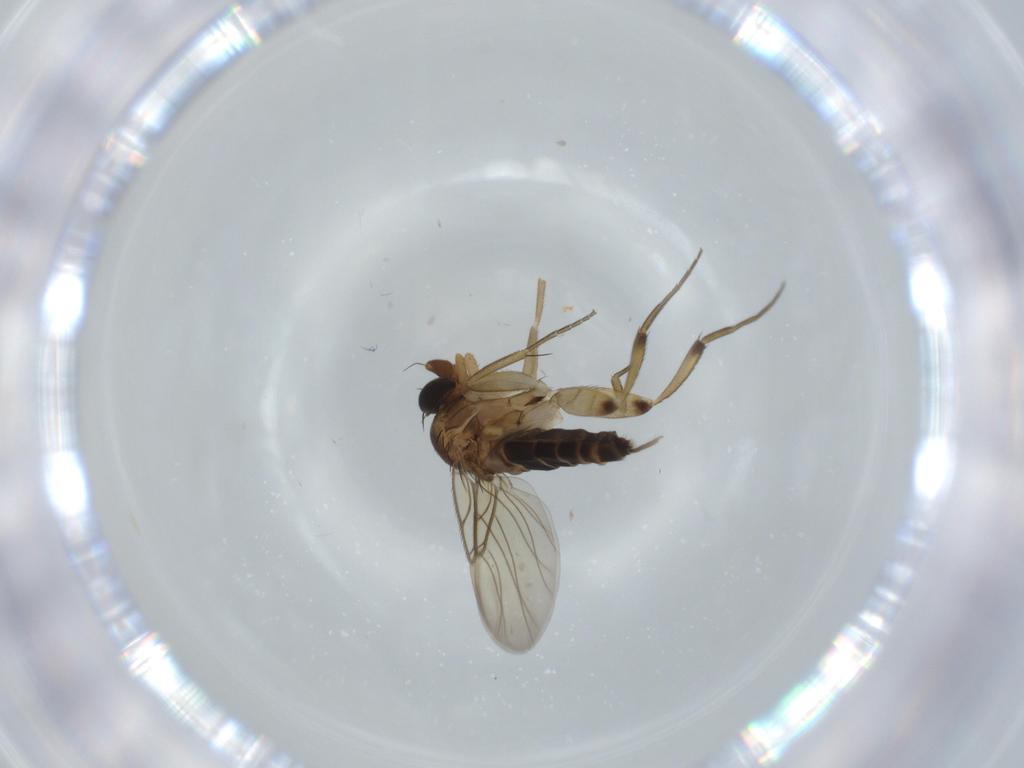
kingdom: Animalia
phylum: Arthropoda
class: Insecta
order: Diptera
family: Phoridae
